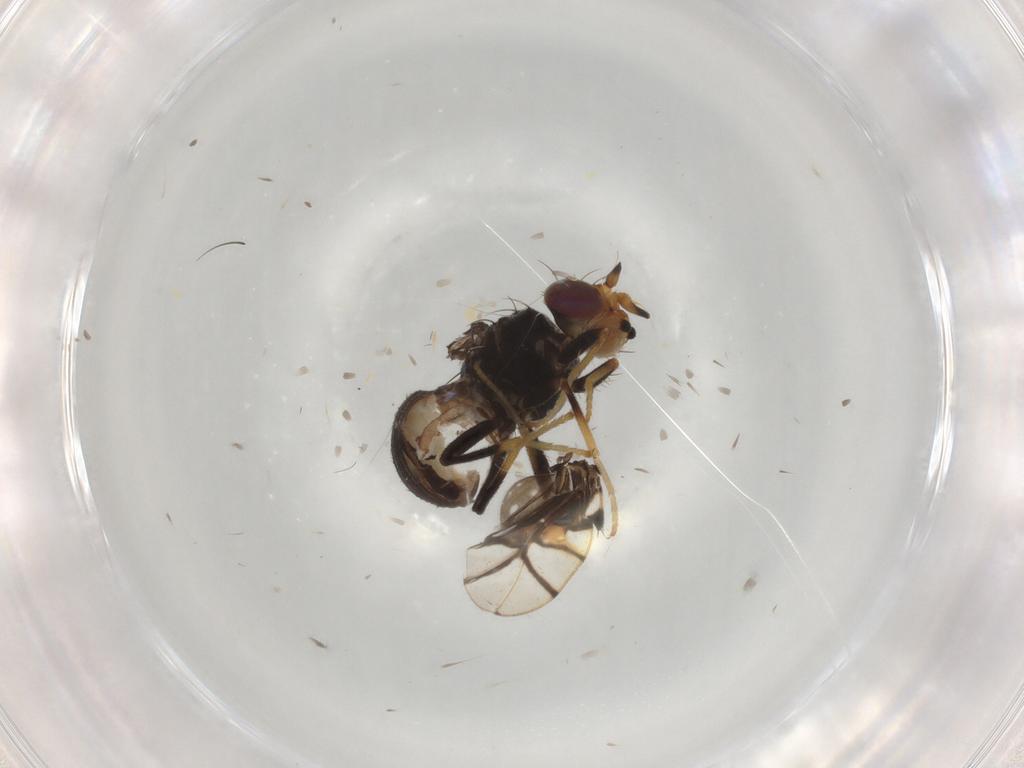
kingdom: Animalia
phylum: Arthropoda
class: Insecta
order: Diptera
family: Tephritidae
